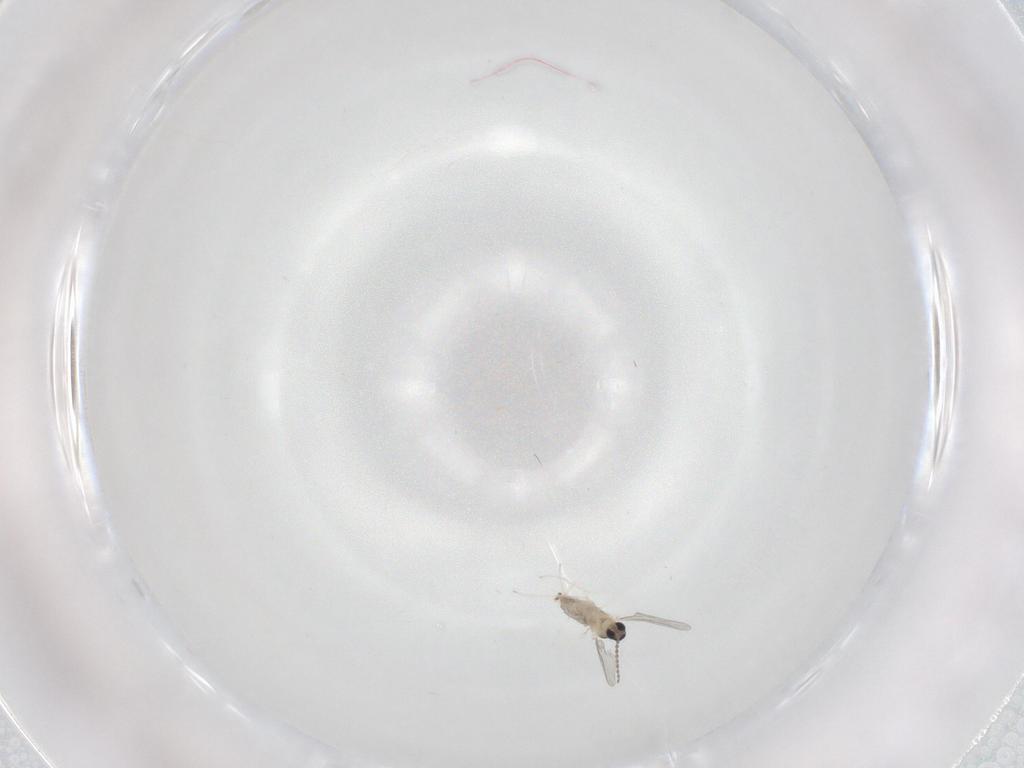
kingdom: Animalia
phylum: Arthropoda
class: Insecta
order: Diptera
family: Cecidomyiidae
